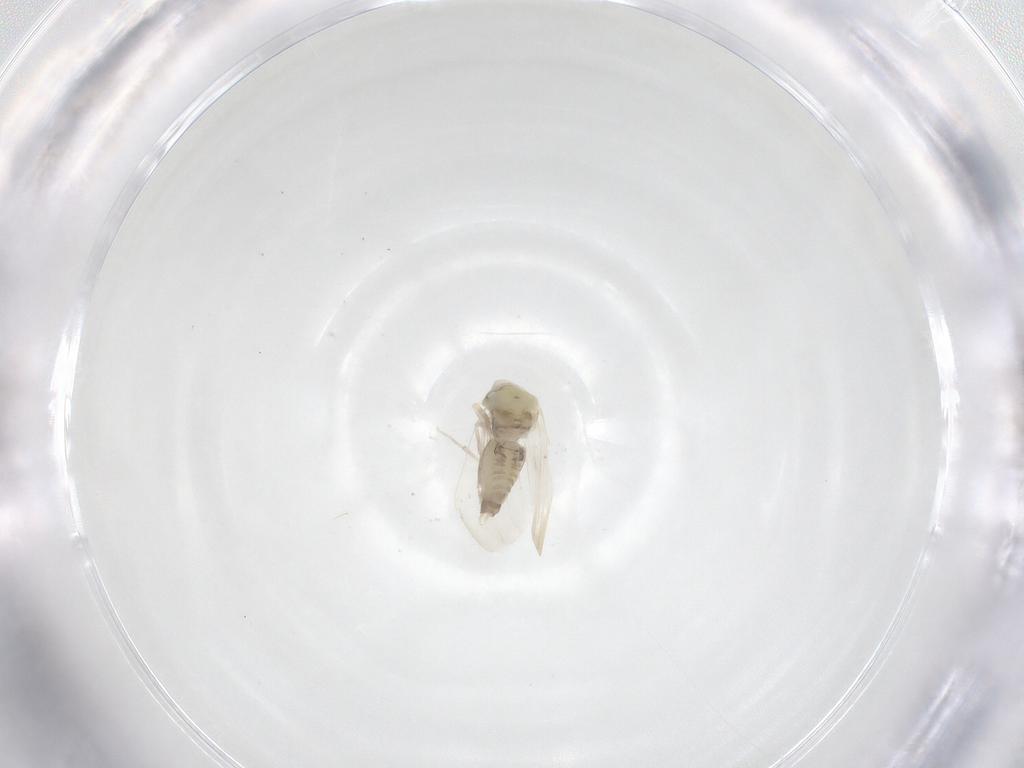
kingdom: Animalia
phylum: Arthropoda
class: Insecta
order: Hemiptera
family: Aleyrodidae
